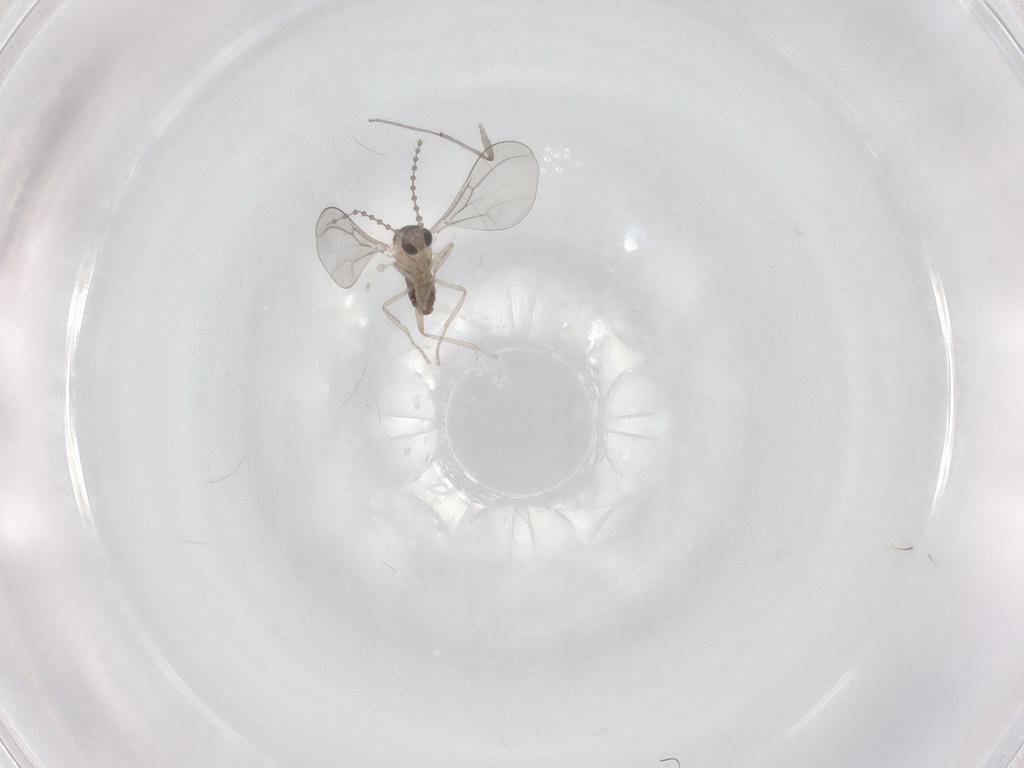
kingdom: Animalia
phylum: Arthropoda
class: Insecta
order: Diptera
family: Cecidomyiidae
